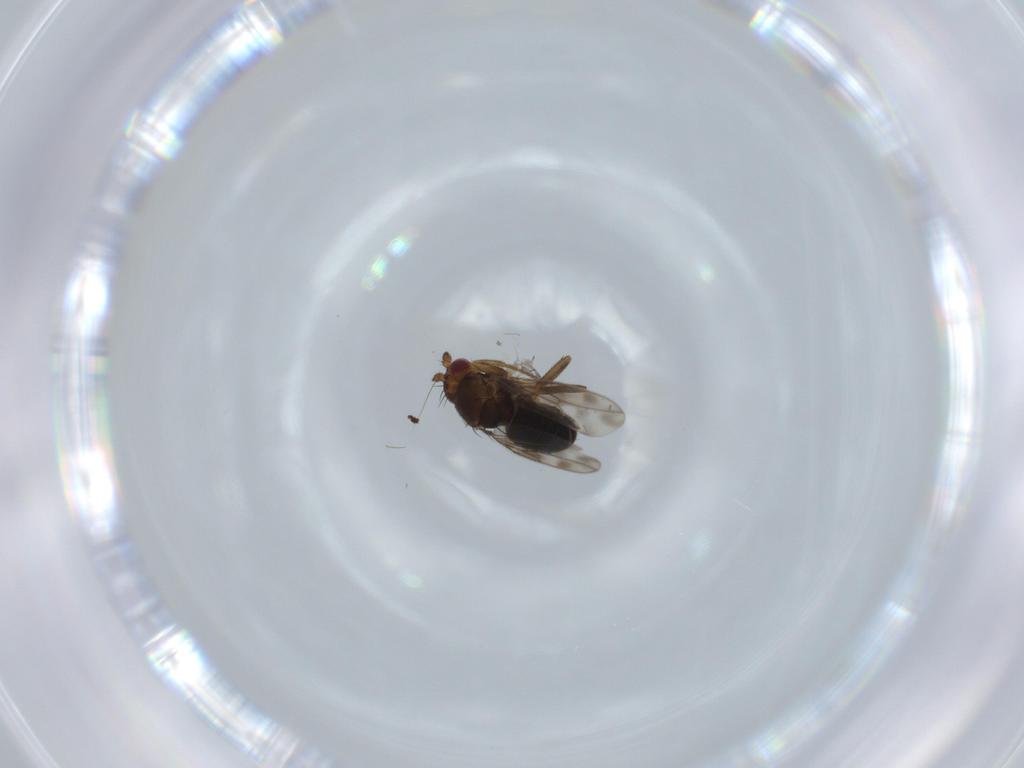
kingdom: Animalia
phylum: Arthropoda
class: Insecta
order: Diptera
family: Sphaeroceridae
